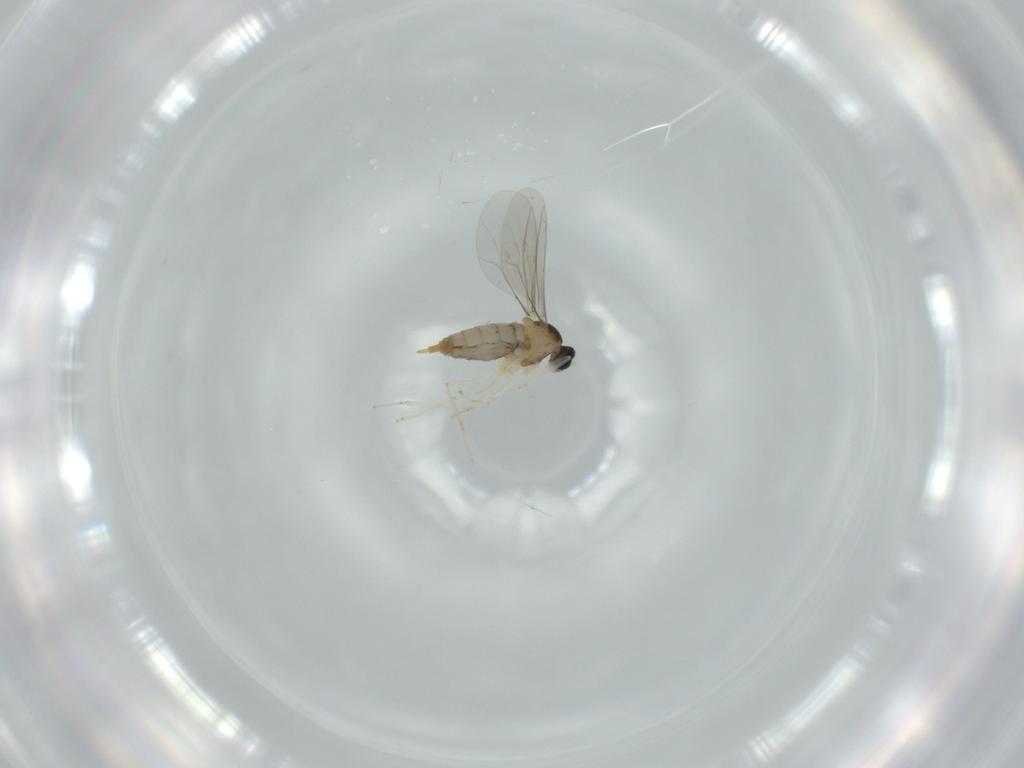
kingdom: Animalia
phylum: Arthropoda
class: Insecta
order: Diptera
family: Cecidomyiidae
